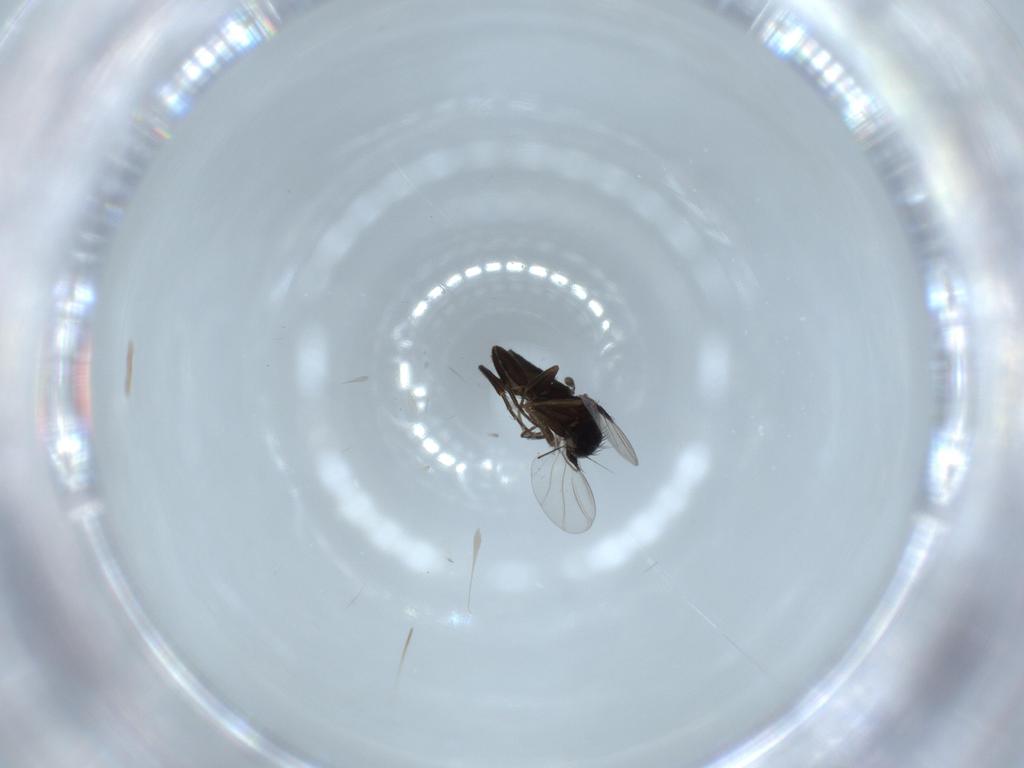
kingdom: Animalia
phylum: Arthropoda
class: Insecta
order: Diptera
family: Phoridae
